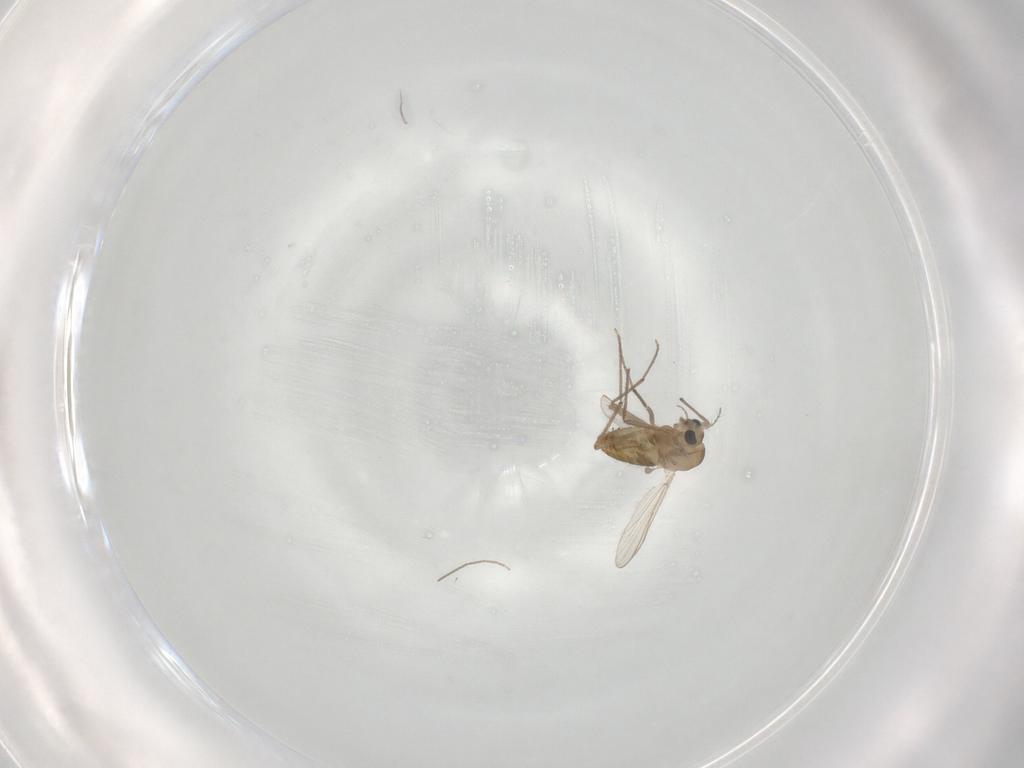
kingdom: Animalia
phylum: Arthropoda
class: Insecta
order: Diptera
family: Chironomidae
